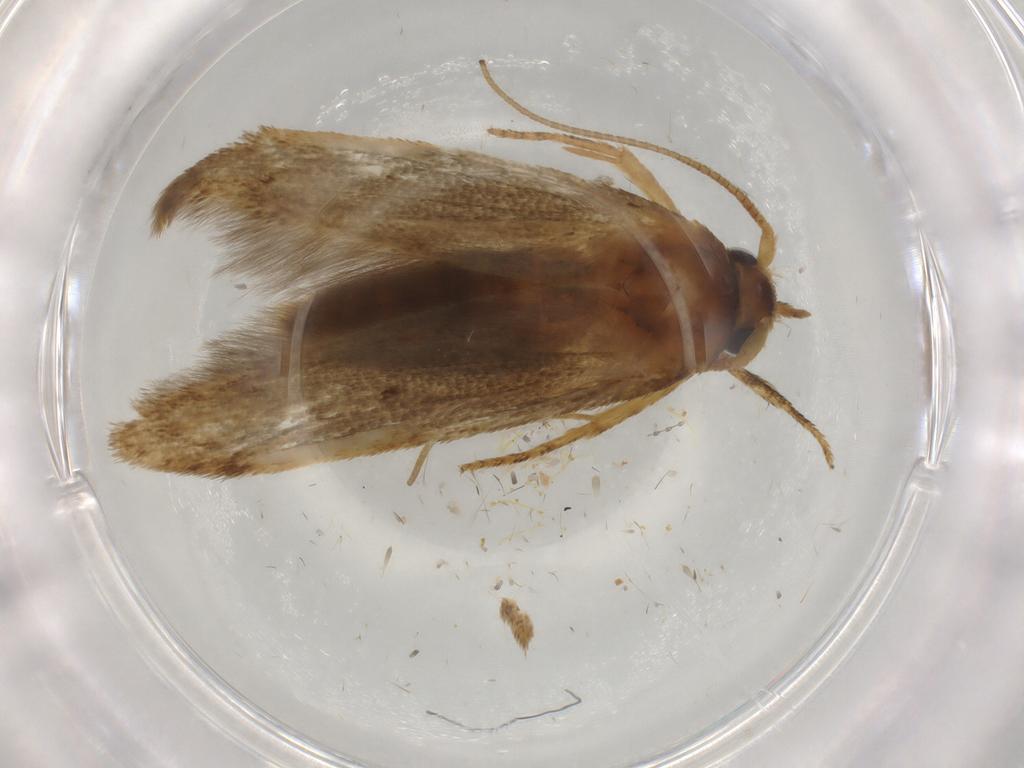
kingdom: Animalia
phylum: Arthropoda
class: Insecta
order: Lepidoptera
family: Blastobasidae
